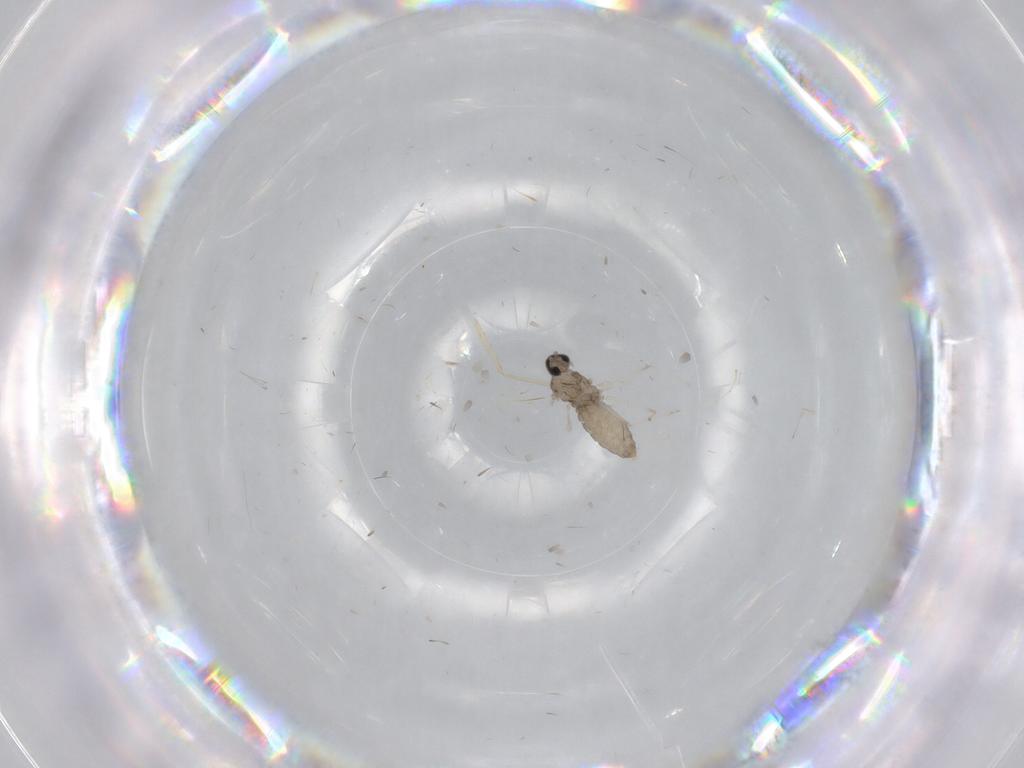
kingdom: Animalia
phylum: Arthropoda
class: Insecta
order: Diptera
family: Cecidomyiidae
